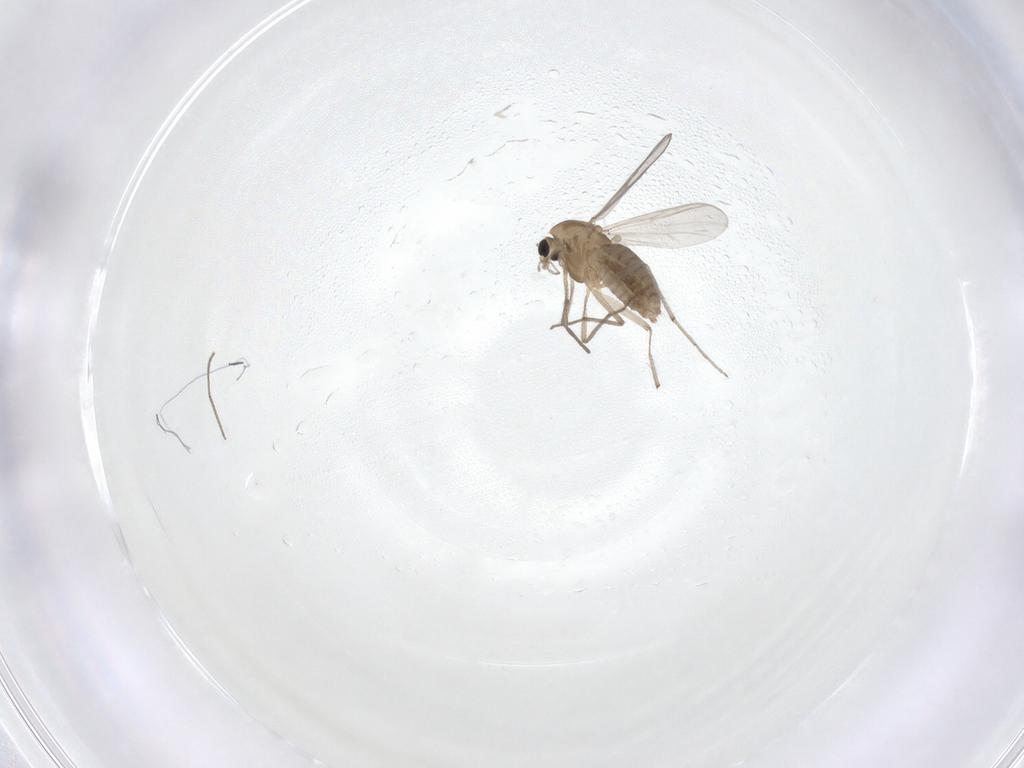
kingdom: Animalia
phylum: Arthropoda
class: Insecta
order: Diptera
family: Chironomidae
